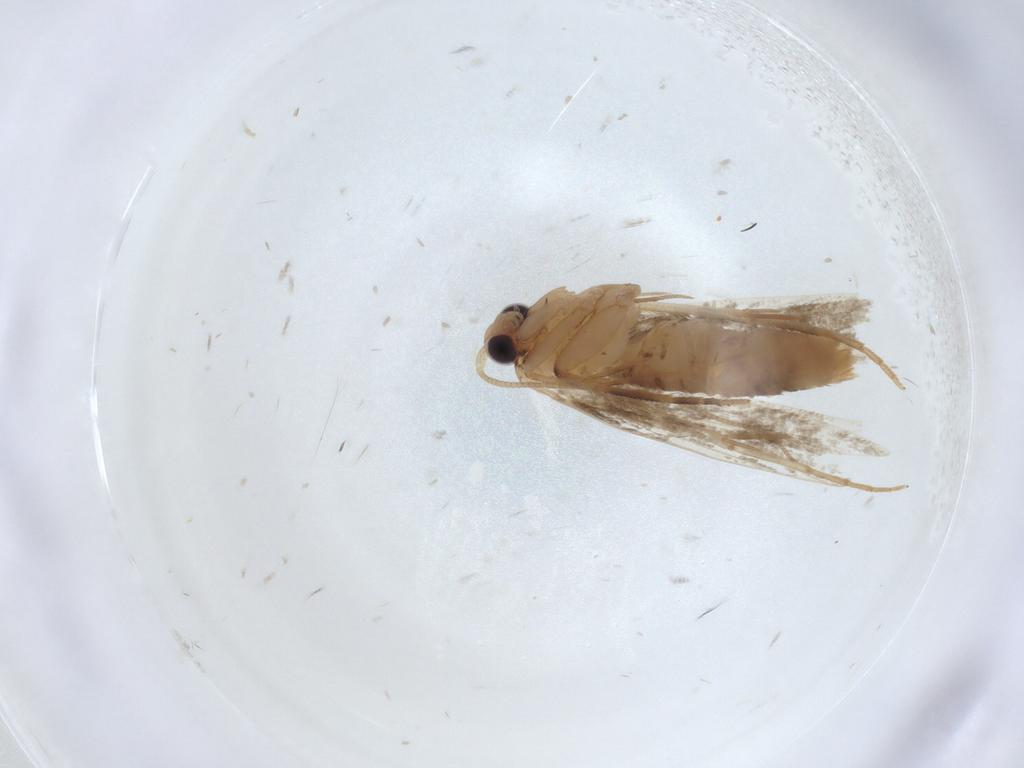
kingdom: Animalia
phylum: Arthropoda
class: Insecta
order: Lepidoptera
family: Tineidae
